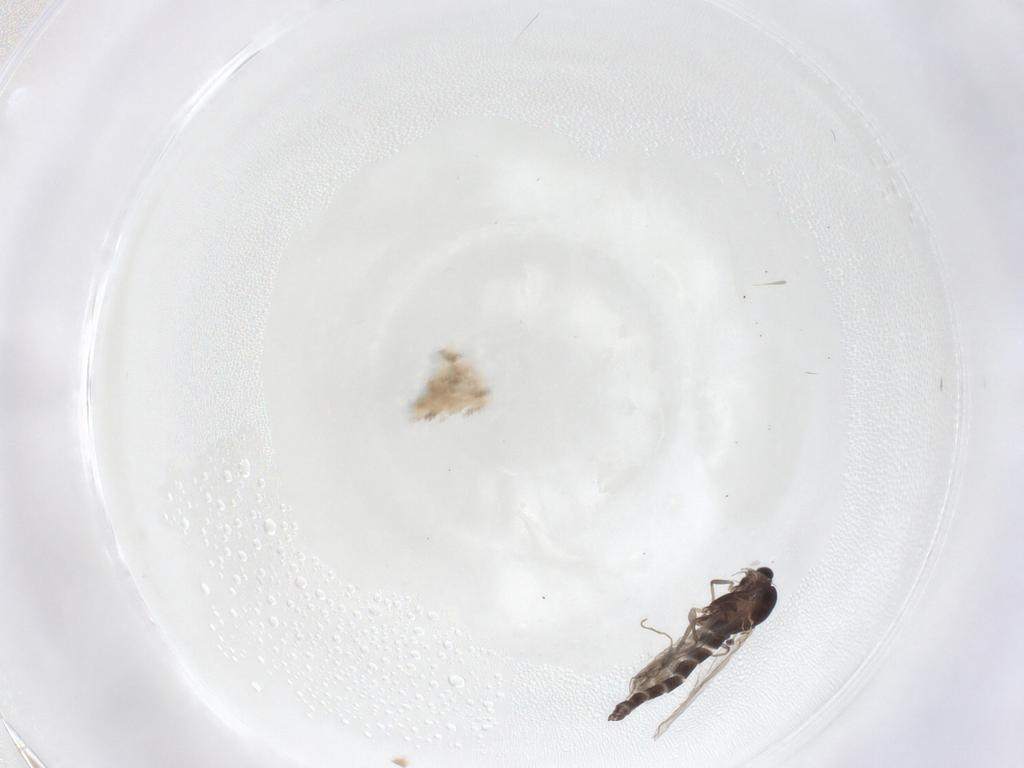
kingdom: Animalia
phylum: Arthropoda
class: Insecta
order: Diptera
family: Chironomidae
